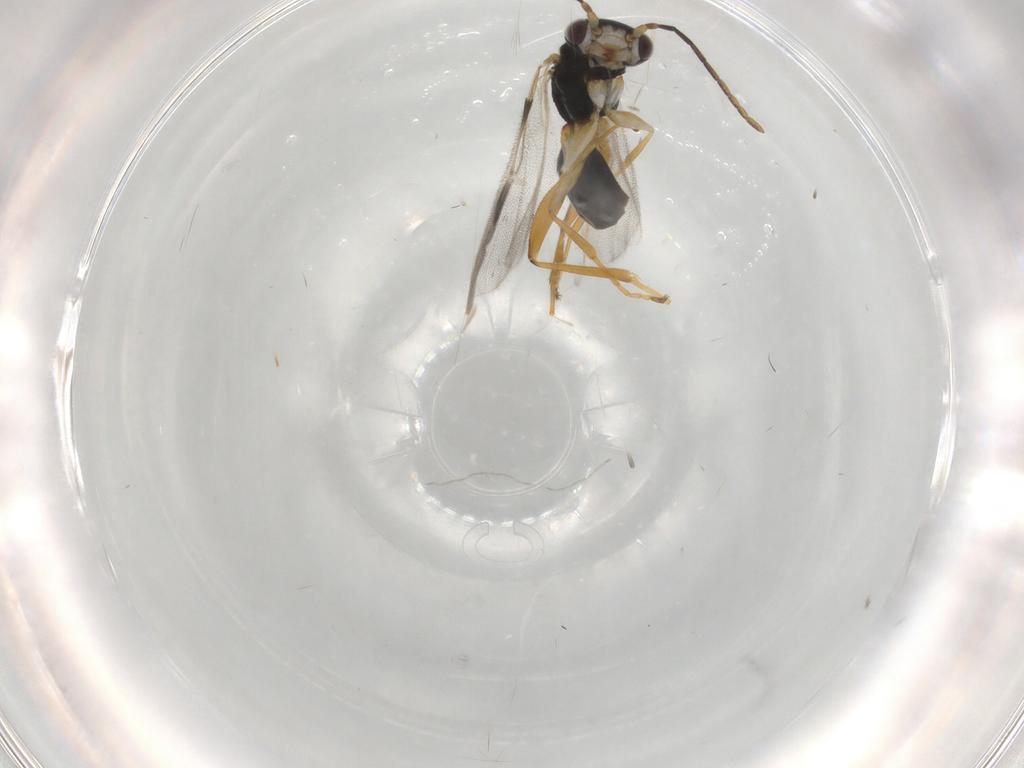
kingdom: Animalia
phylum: Arthropoda
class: Insecta
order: Hymenoptera
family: Dryinidae
